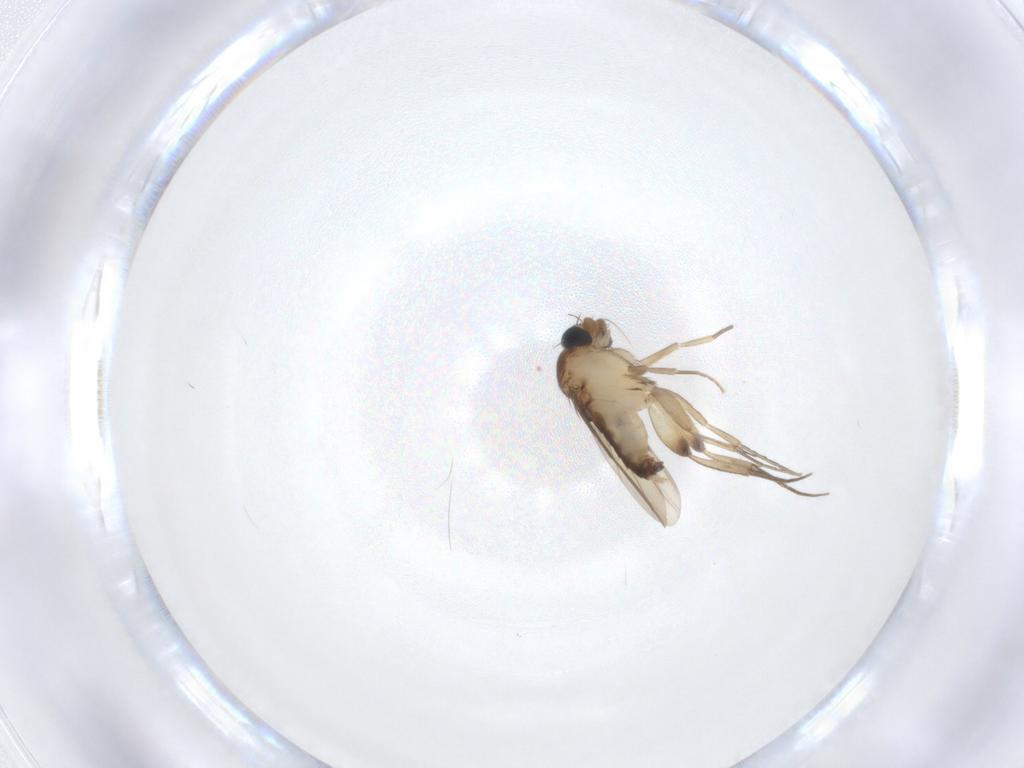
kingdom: Animalia
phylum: Arthropoda
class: Insecta
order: Diptera
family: Phoridae
